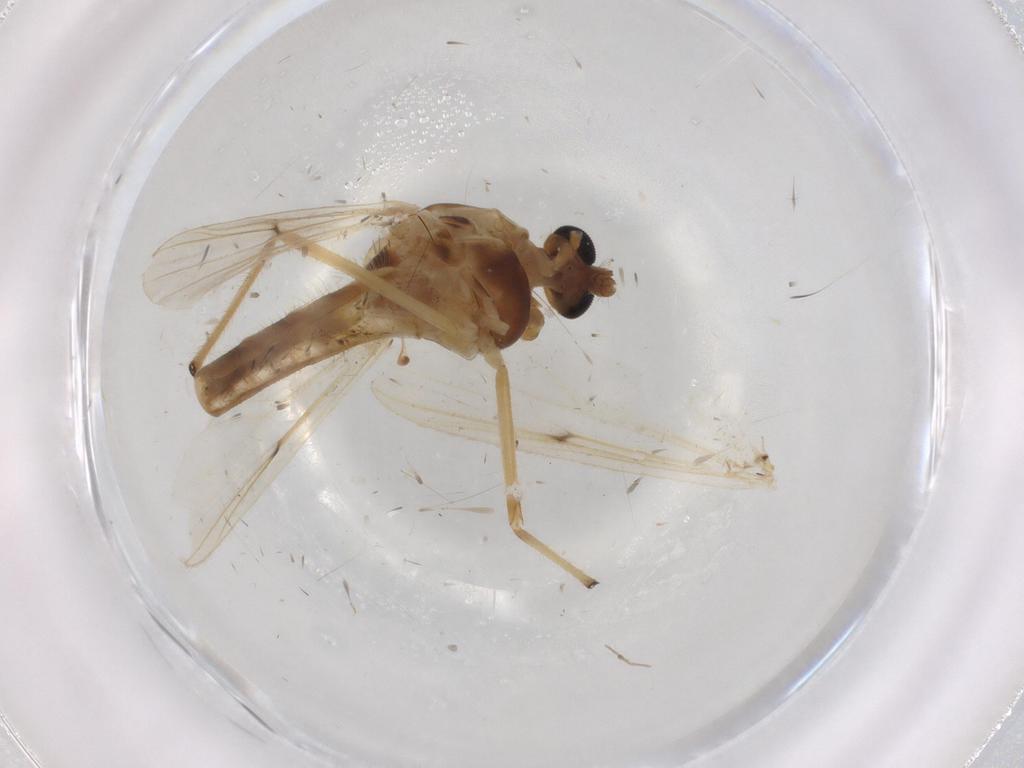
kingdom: Animalia
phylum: Arthropoda
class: Insecta
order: Diptera
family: Chironomidae
